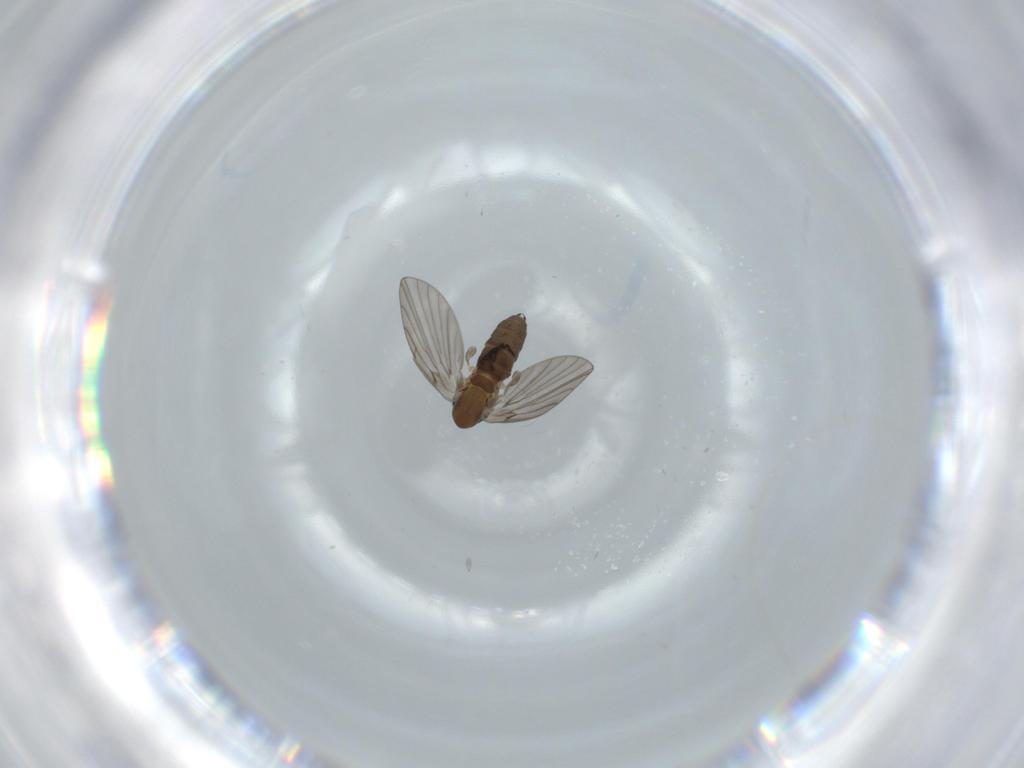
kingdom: Animalia
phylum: Arthropoda
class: Insecta
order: Diptera
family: Psychodidae
